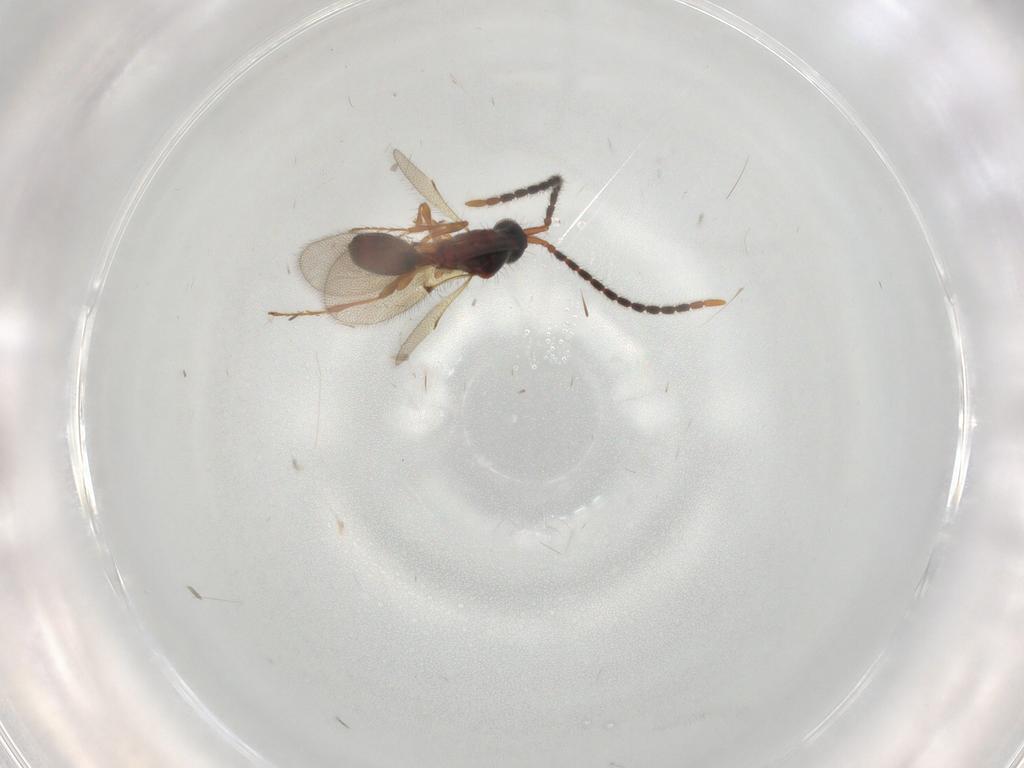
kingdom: Animalia
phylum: Arthropoda
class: Insecta
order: Hymenoptera
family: Diapriidae
